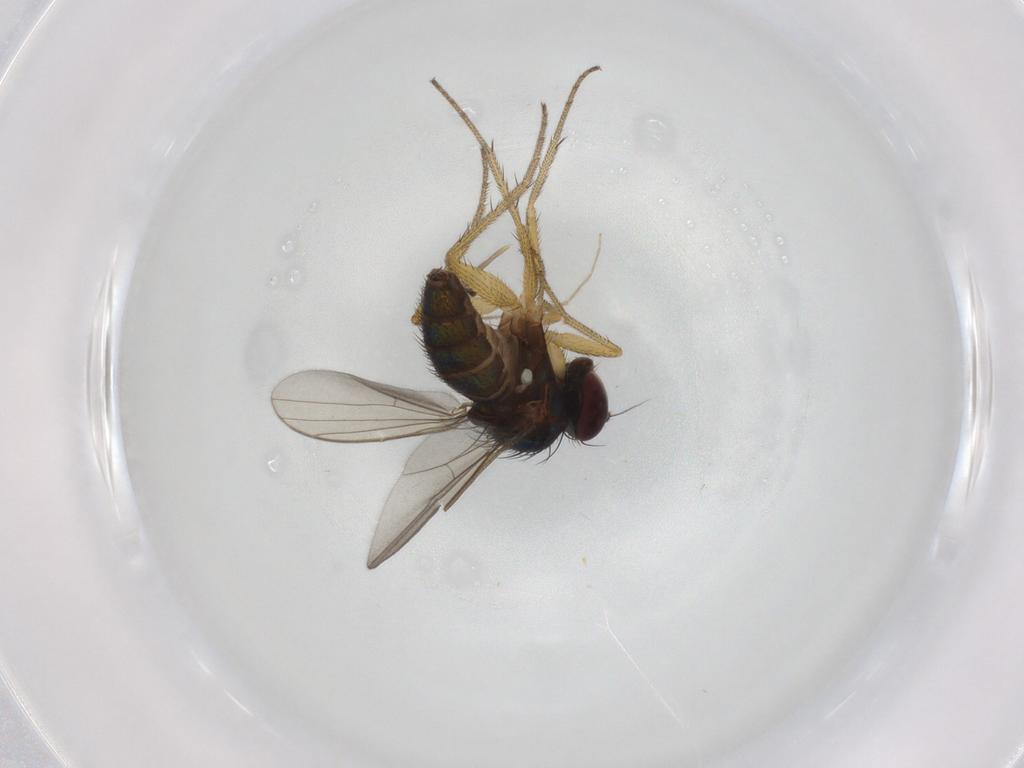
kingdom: Animalia
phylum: Arthropoda
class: Insecta
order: Diptera
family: Dolichopodidae
